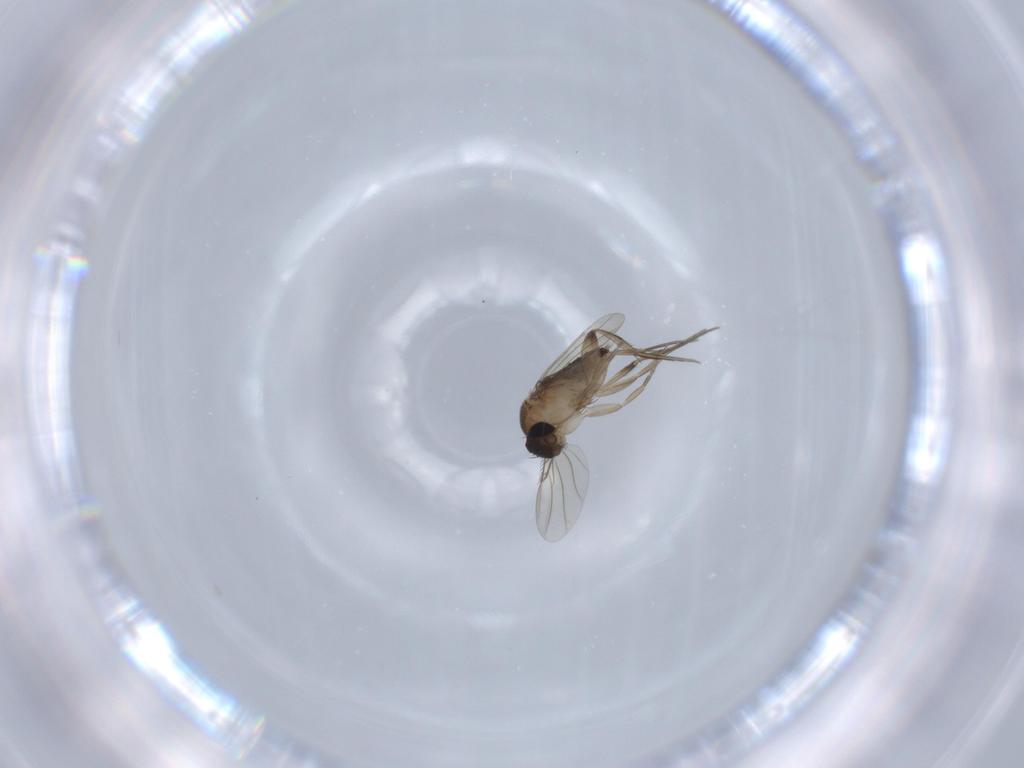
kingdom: Animalia
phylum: Arthropoda
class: Insecta
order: Diptera
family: Phoridae
